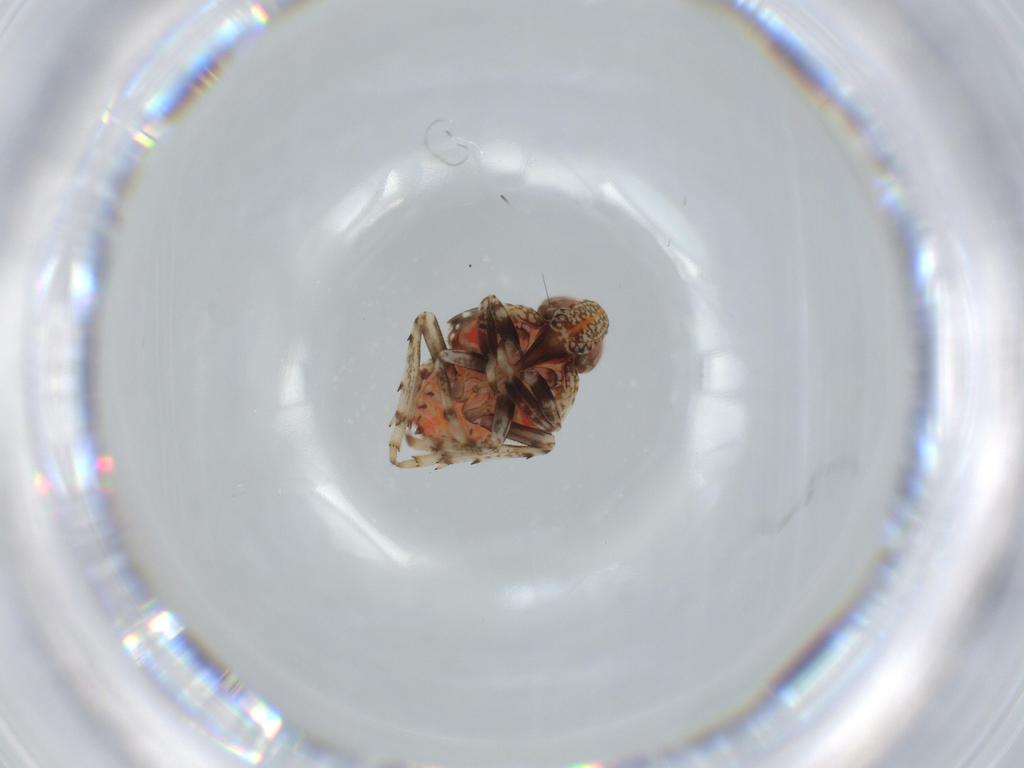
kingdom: Animalia
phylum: Arthropoda
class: Insecta
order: Hemiptera
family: Issidae
